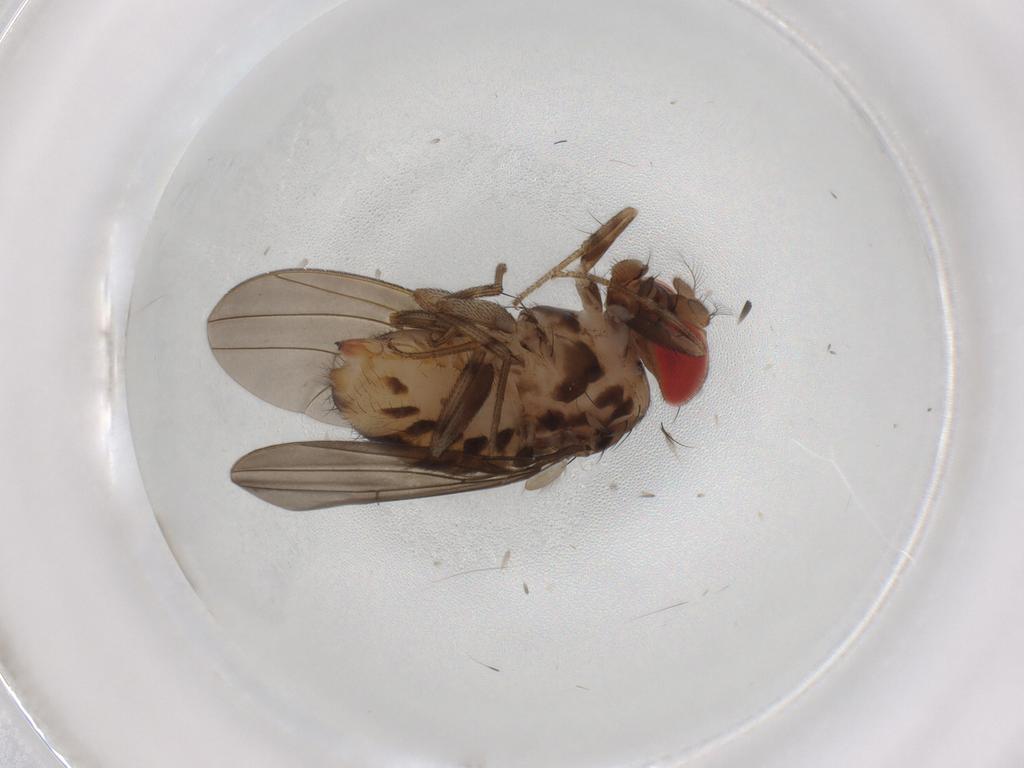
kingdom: Animalia
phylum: Arthropoda
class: Insecta
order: Diptera
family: Drosophilidae
